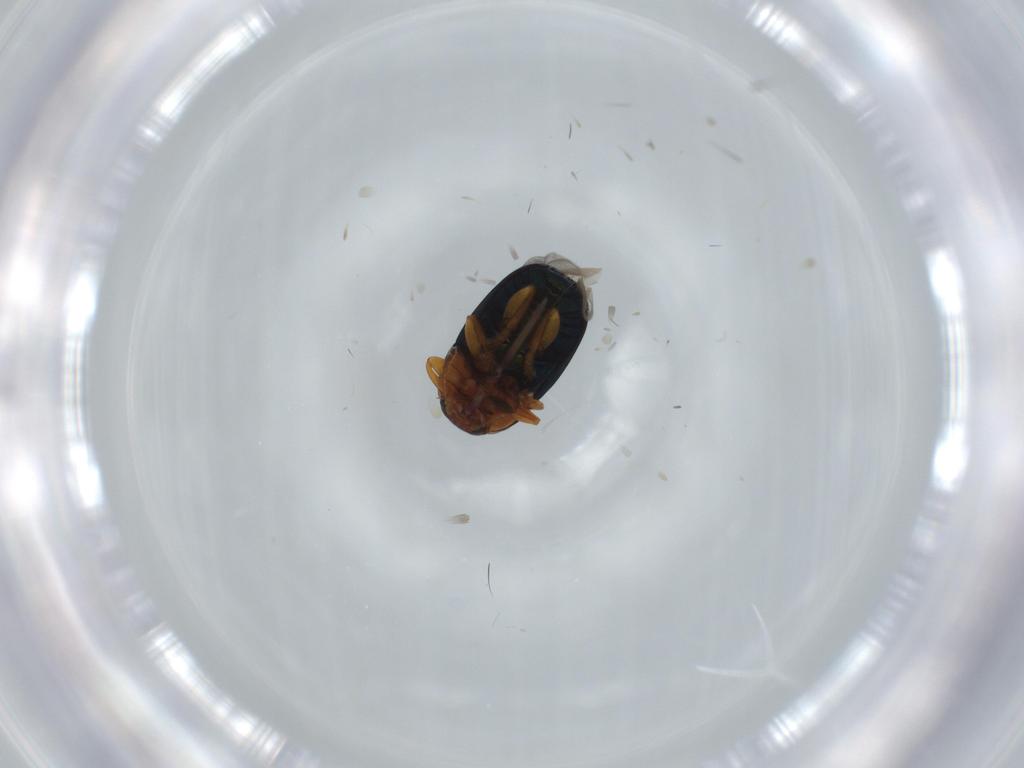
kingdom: Animalia
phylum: Arthropoda
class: Insecta
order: Coleoptera
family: Chrysomelidae
